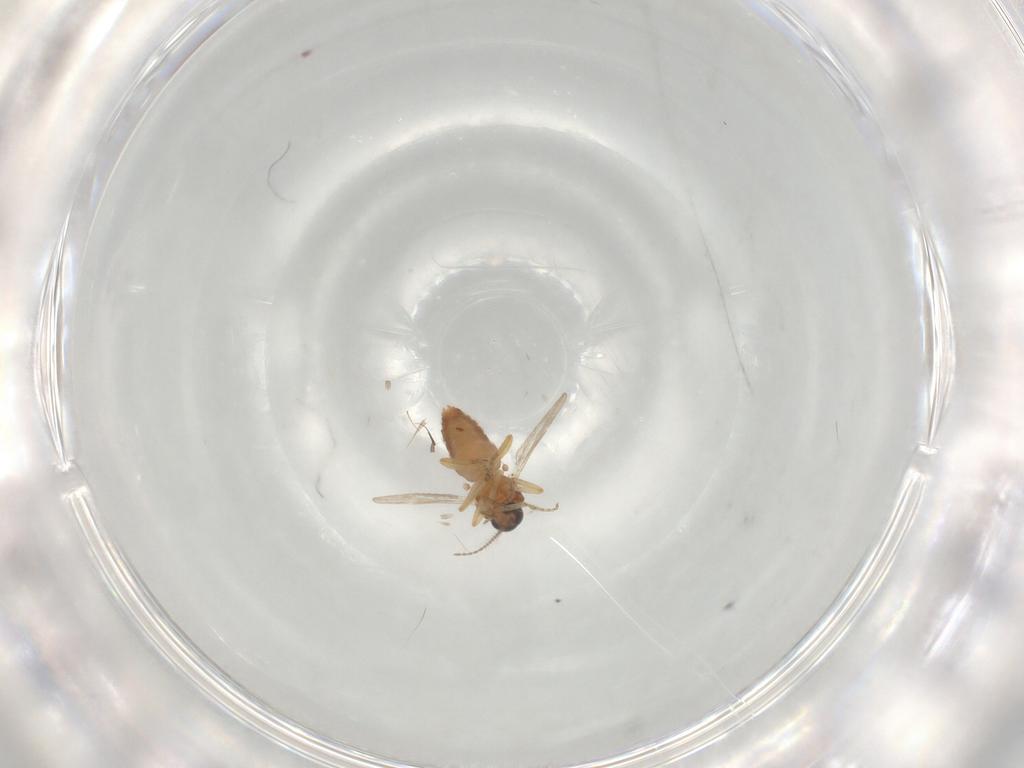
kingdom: Animalia
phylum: Arthropoda
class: Insecta
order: Diptera
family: Ceratopogonidae
